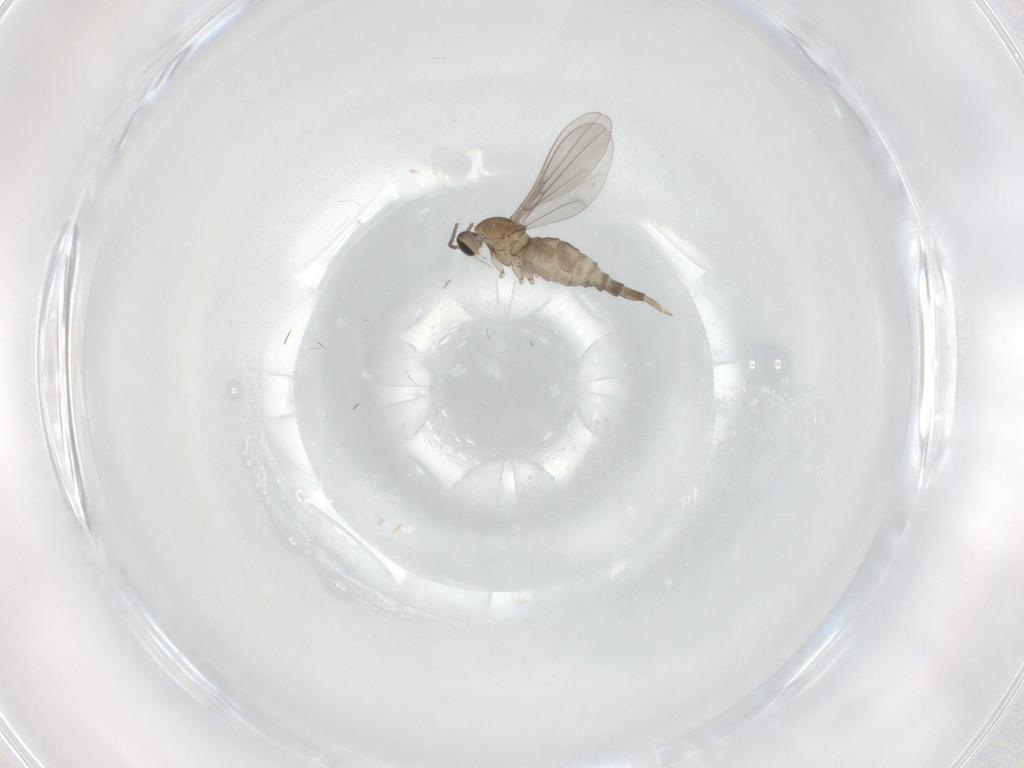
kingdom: Animalia
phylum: Arthropoda
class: Insecta
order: Diptera
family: Cecidomyiidae
